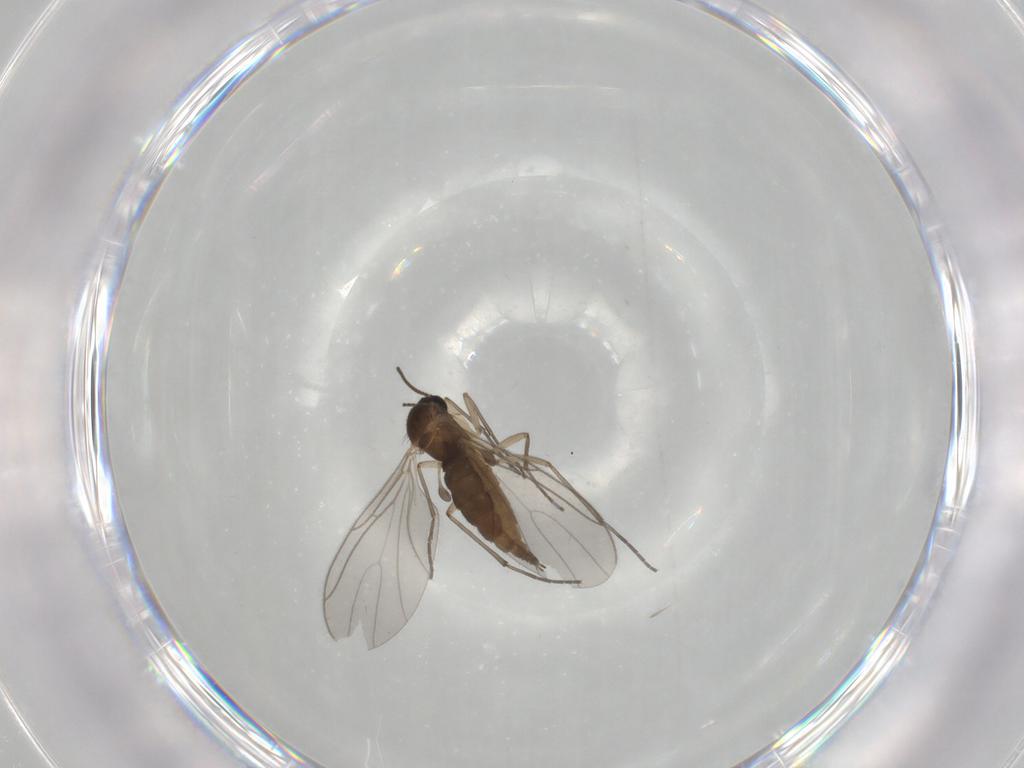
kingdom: Animalia
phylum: Arthropoda
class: Insecta
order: Diptera
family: Sciaridae
